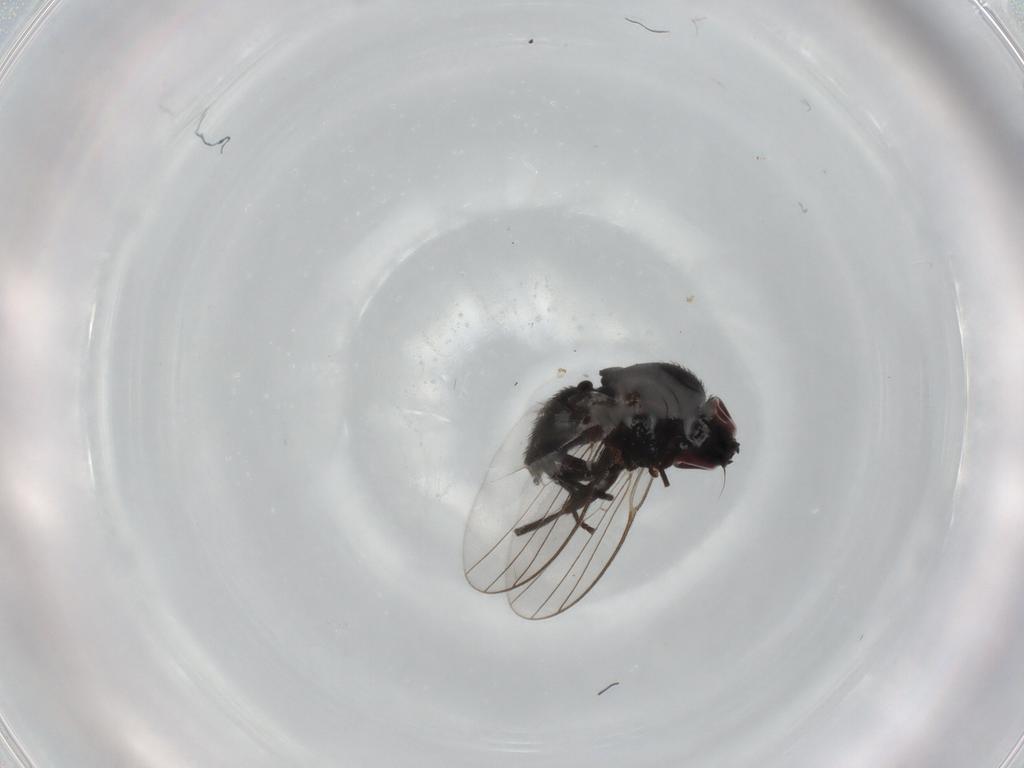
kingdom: Animalia
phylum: Arthropoda
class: Insecta
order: Diptera
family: Agromyzidae
